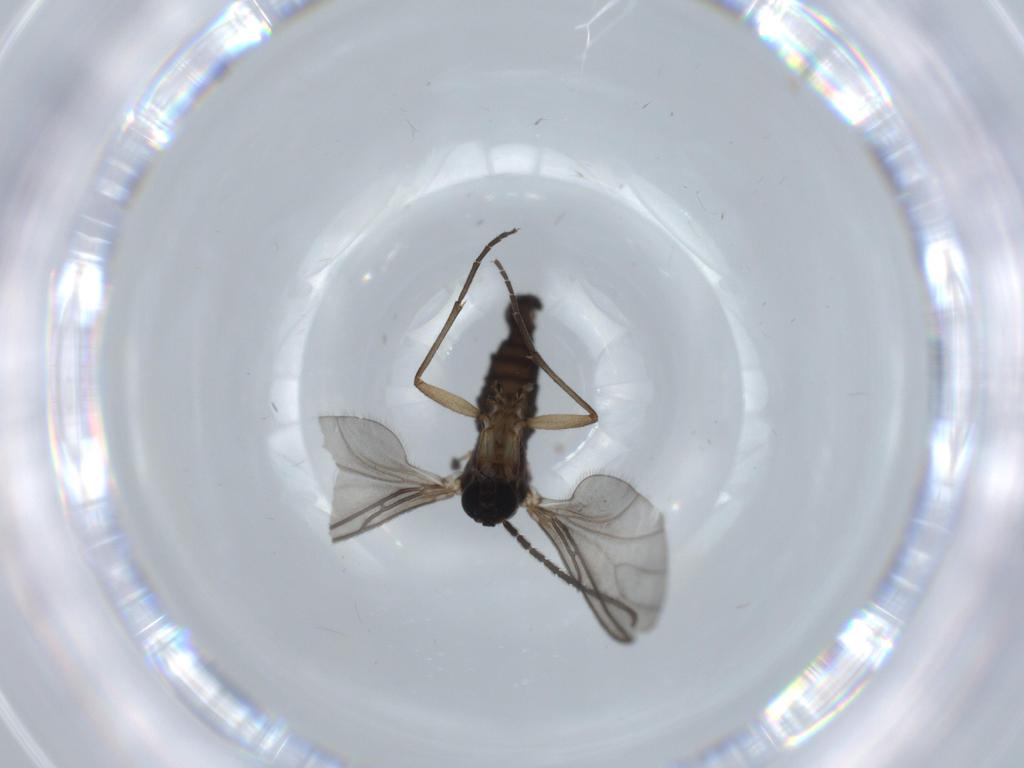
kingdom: Animalia
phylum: Arthropoda
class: Insecta
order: Diptera
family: Sciaridae
